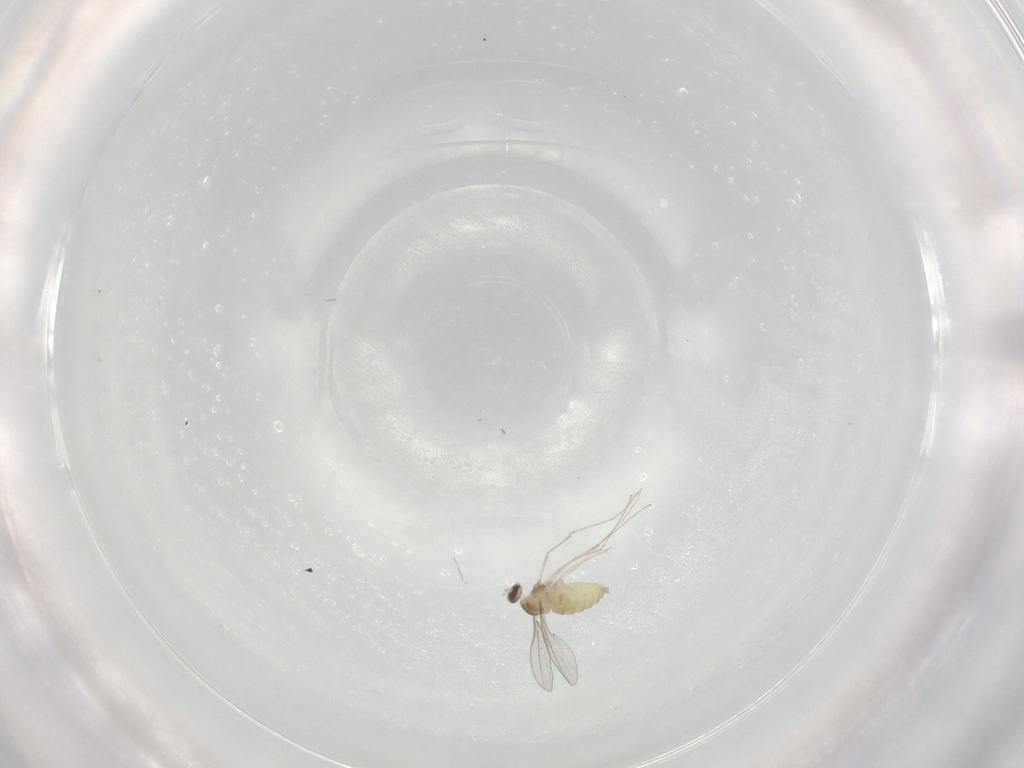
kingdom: Animalia
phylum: Arthropoda
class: Insecta
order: Diptera
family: Cecidomyiidae
